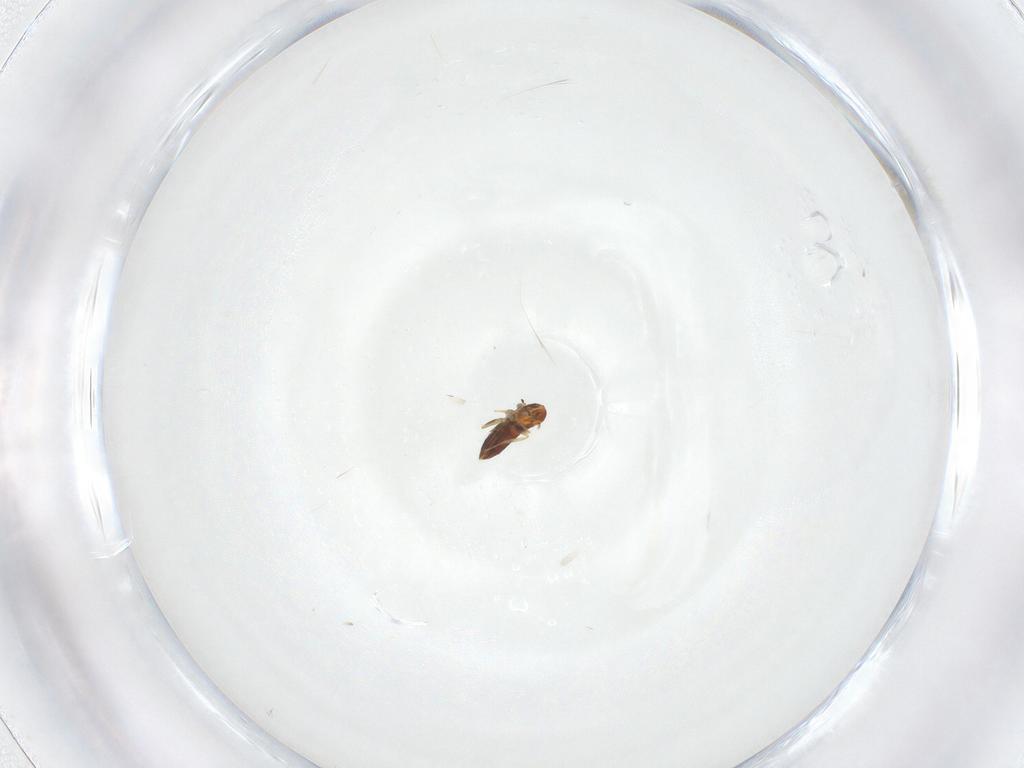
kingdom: Animalia
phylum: Arthropoda
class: Insecta
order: Hymenoptera
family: Trichogrammatidae
